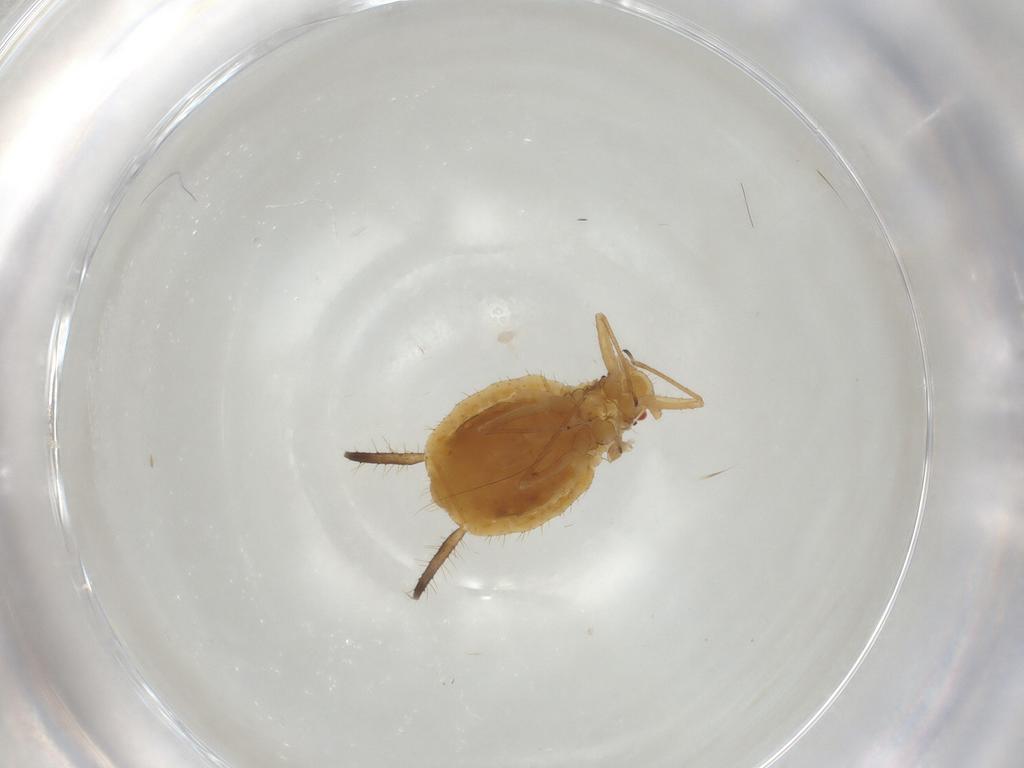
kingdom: Animalia
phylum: Arthropoda
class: Insecta
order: Hemiptera
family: Aphididae
